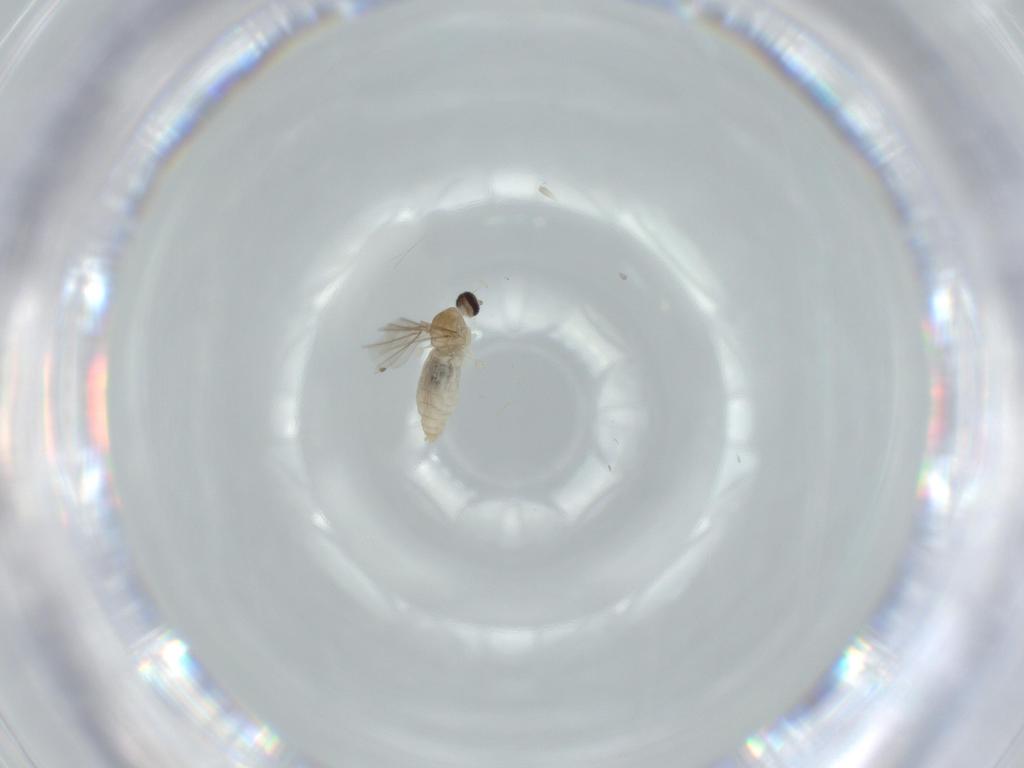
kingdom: Animalia
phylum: Arthropoda
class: Insecta
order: Diptera
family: Cecidomyiidae
